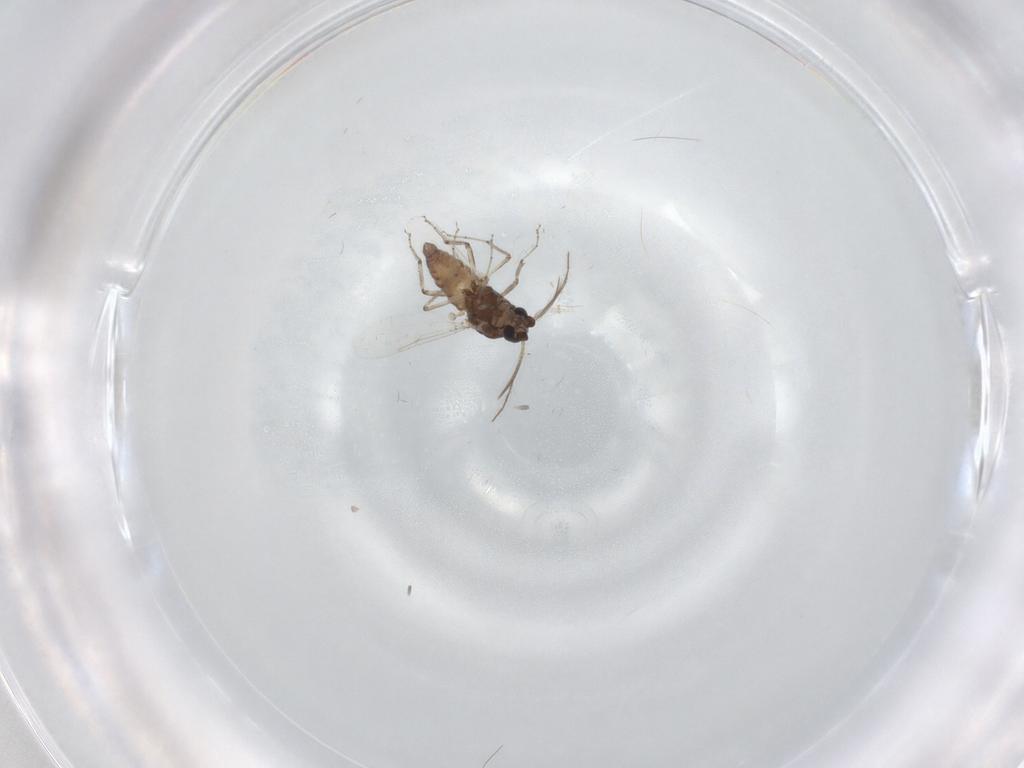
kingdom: Animalia
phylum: Arthropoda
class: Insecta
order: Diptera
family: Ceratopogonidae
